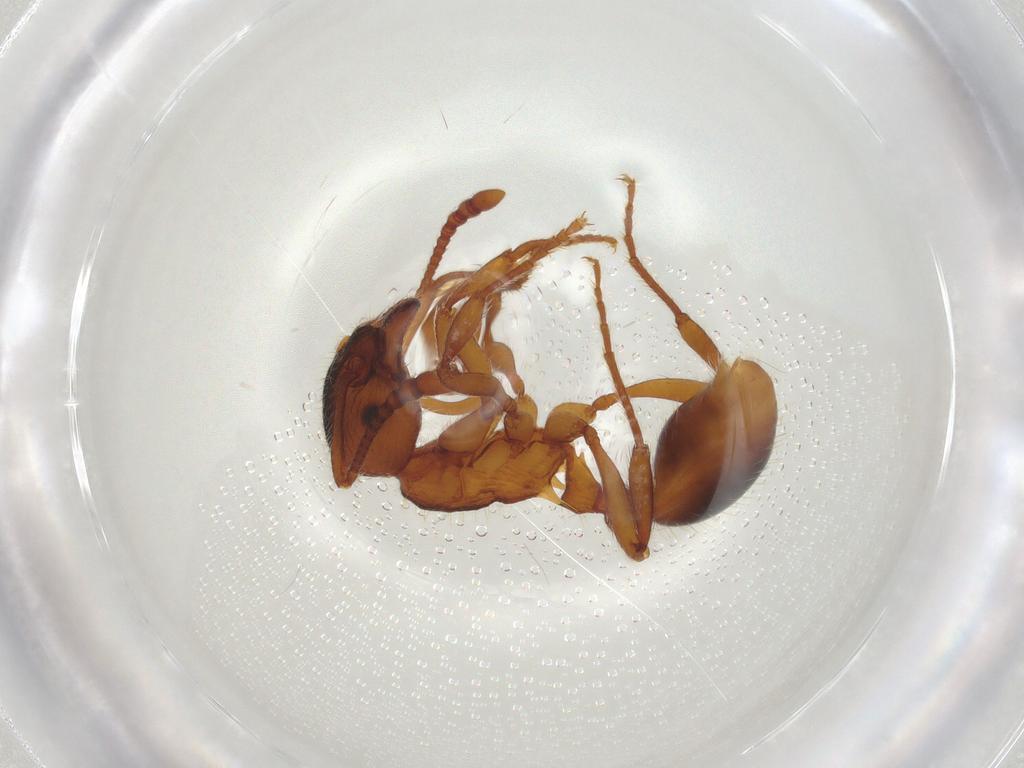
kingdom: Animalia
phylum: Arthropoda
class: Insecta
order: Hymenoptera
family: Formicidae
